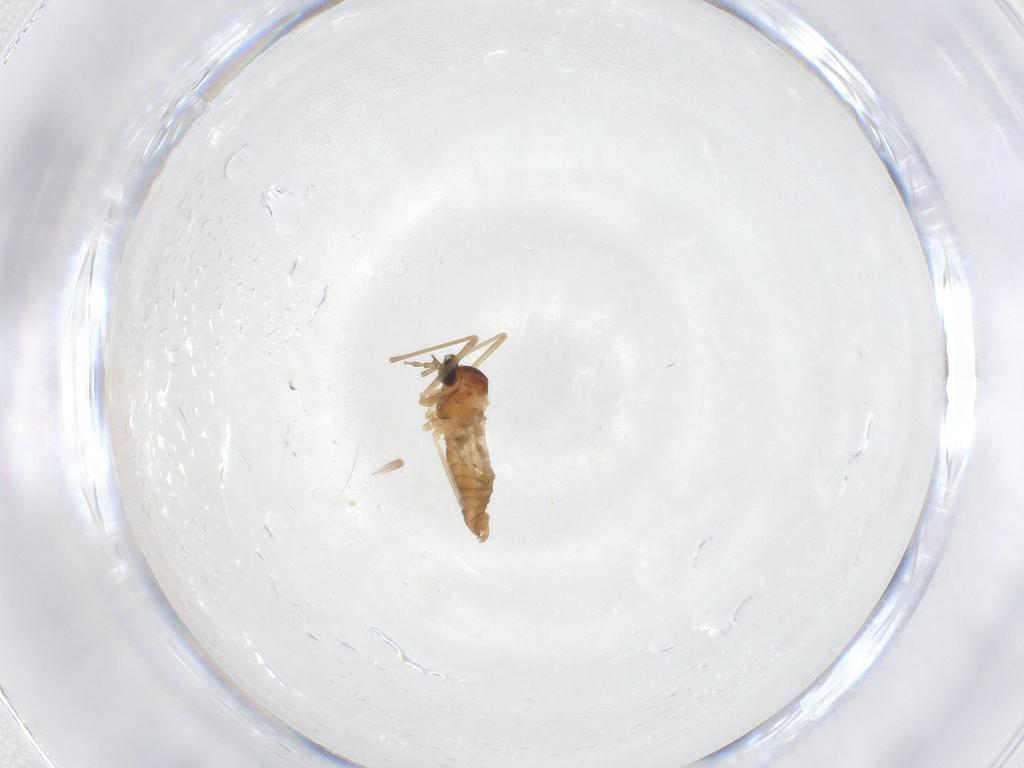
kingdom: Animalia
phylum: Arthropoda
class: Insecta
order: Diptera
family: Cecidomyiidae
